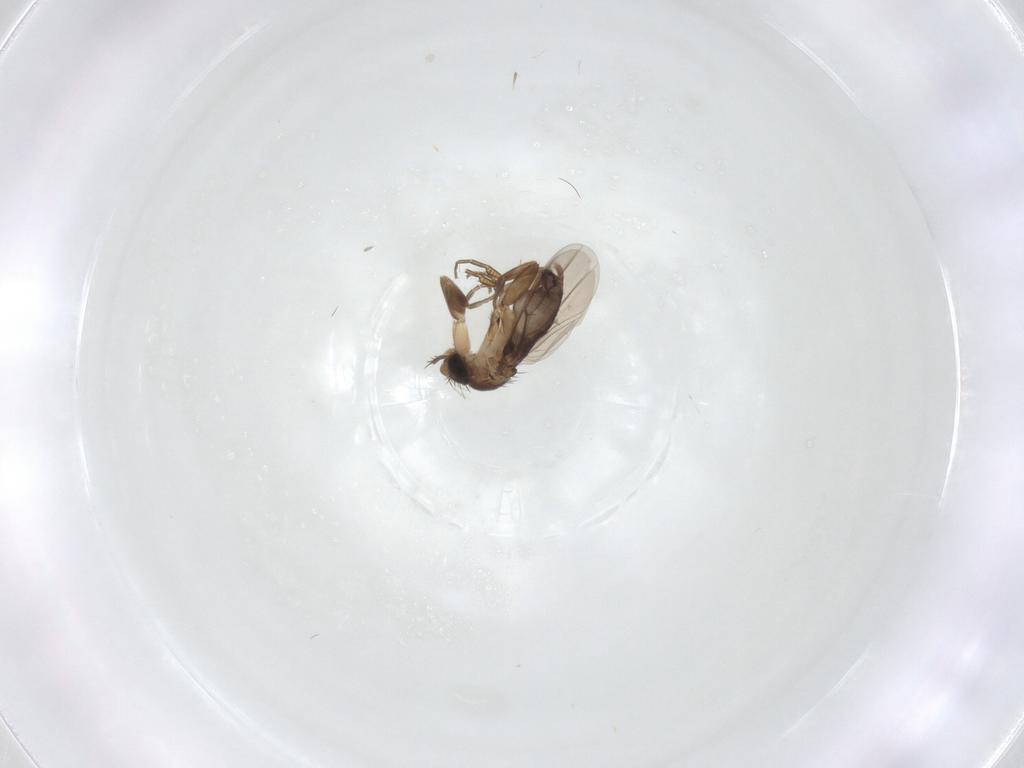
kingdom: Animalia
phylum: Arthropoda
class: Insecta
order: Diptera
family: Phoridae
